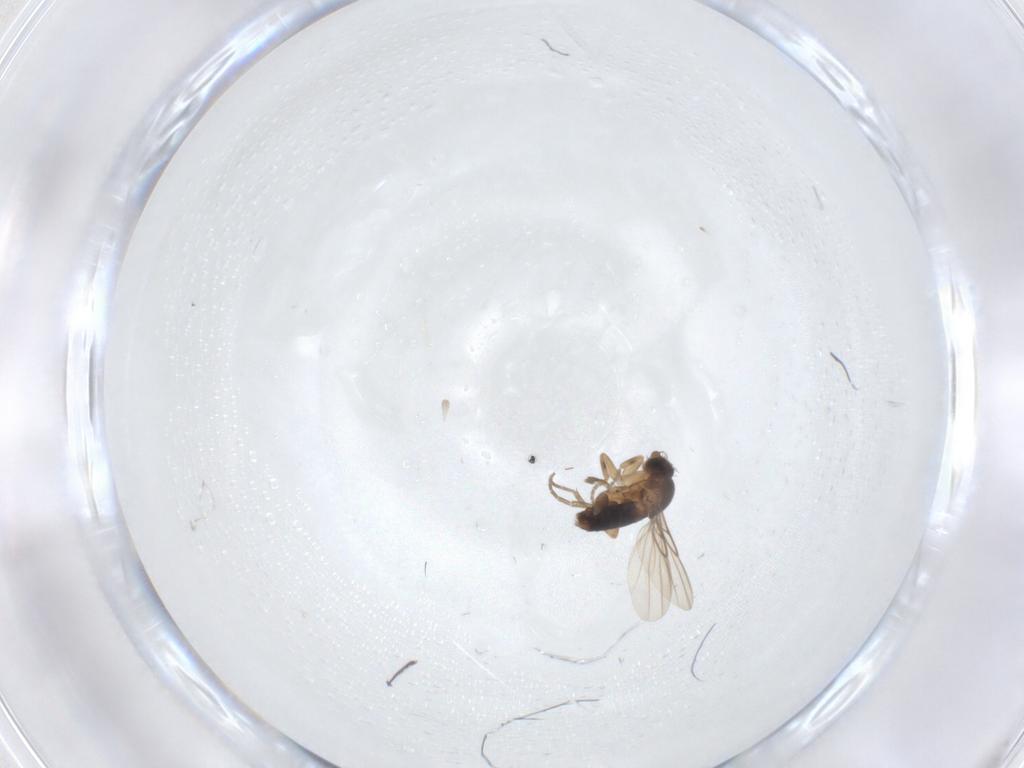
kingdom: Animalia
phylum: Arthropoda
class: Insecta
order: Diptera
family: Phoridae
